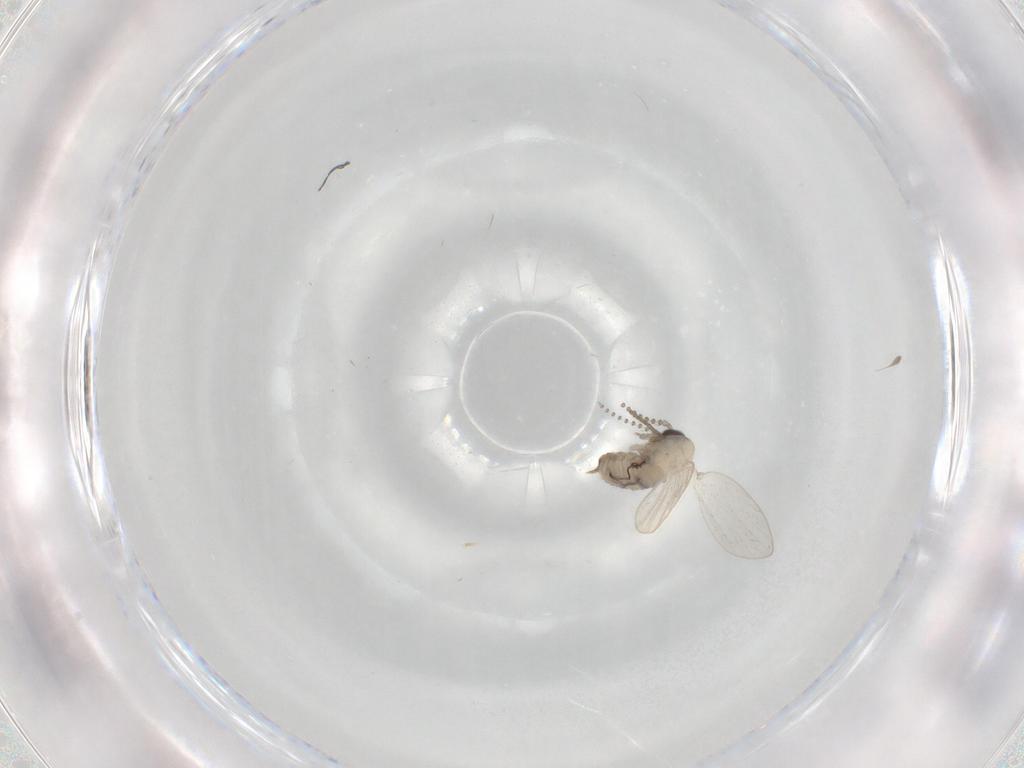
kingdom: Animalia
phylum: Arthropoda
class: Insecta
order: Diptera
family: Psychodidae
